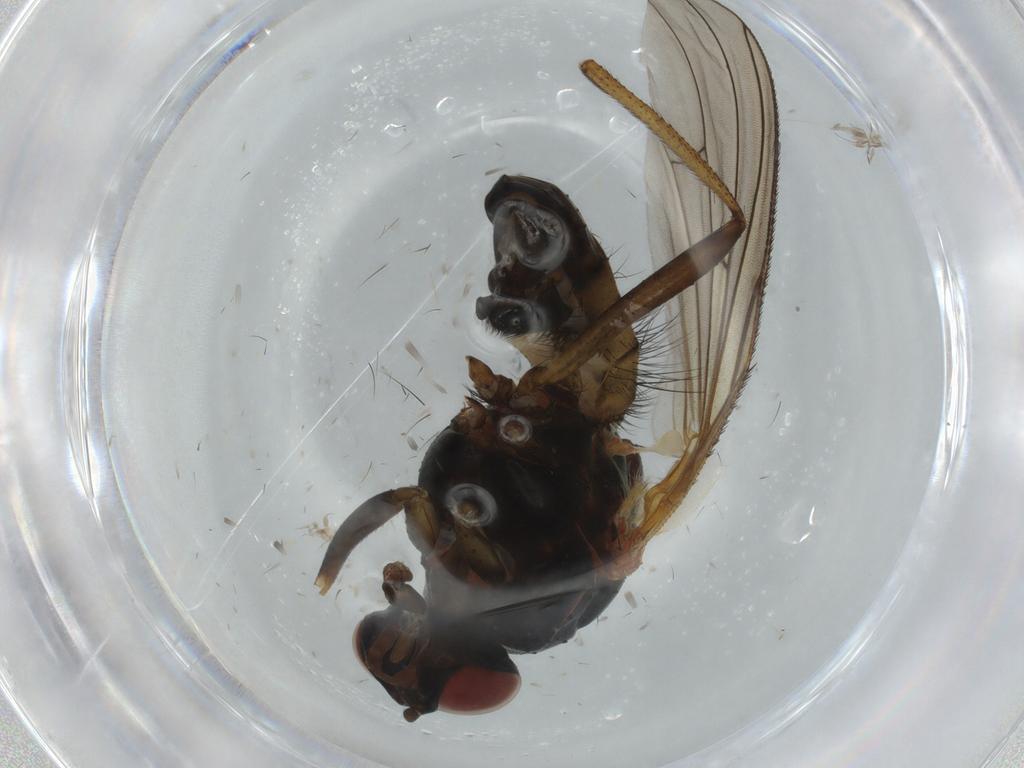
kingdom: Animalia
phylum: Arthropoda
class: Insecta
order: Diptera
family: Anthomyiidae
